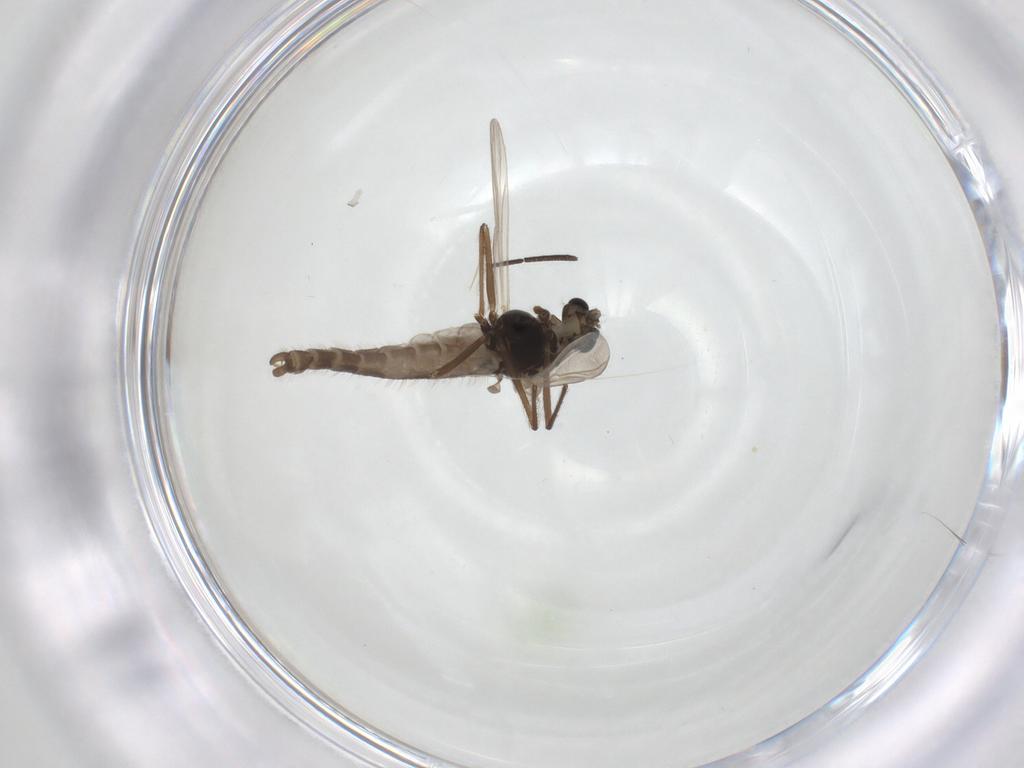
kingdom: Animalia
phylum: Arthropoda
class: Insecta
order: Diptera
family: Chironomidae
